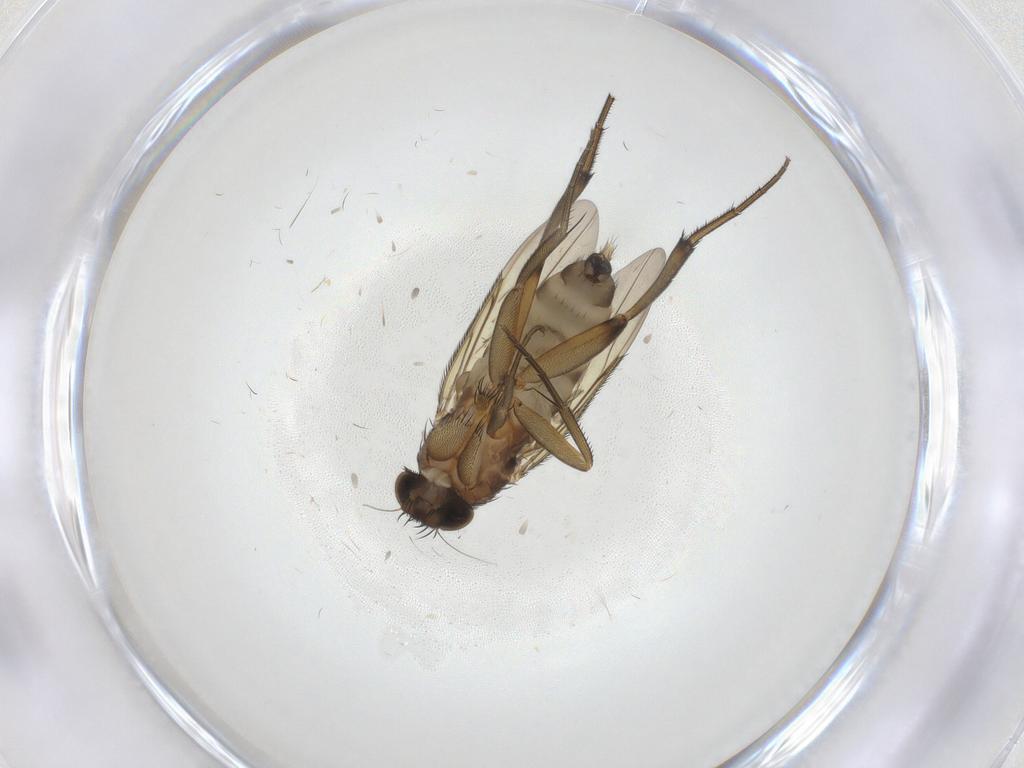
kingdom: Animalia
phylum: Arthropoda
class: Insecta
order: Diptera
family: Phoridae
